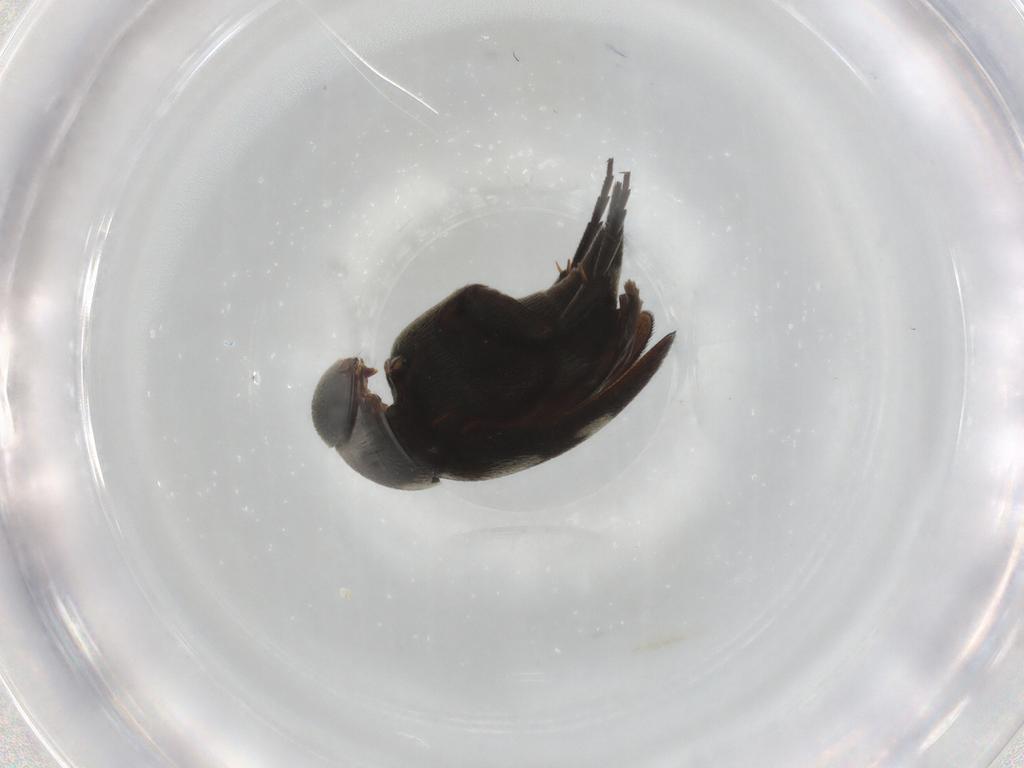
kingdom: Animalia
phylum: Arthropoda
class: Insecta
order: Coleoptera
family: Mordellidae
